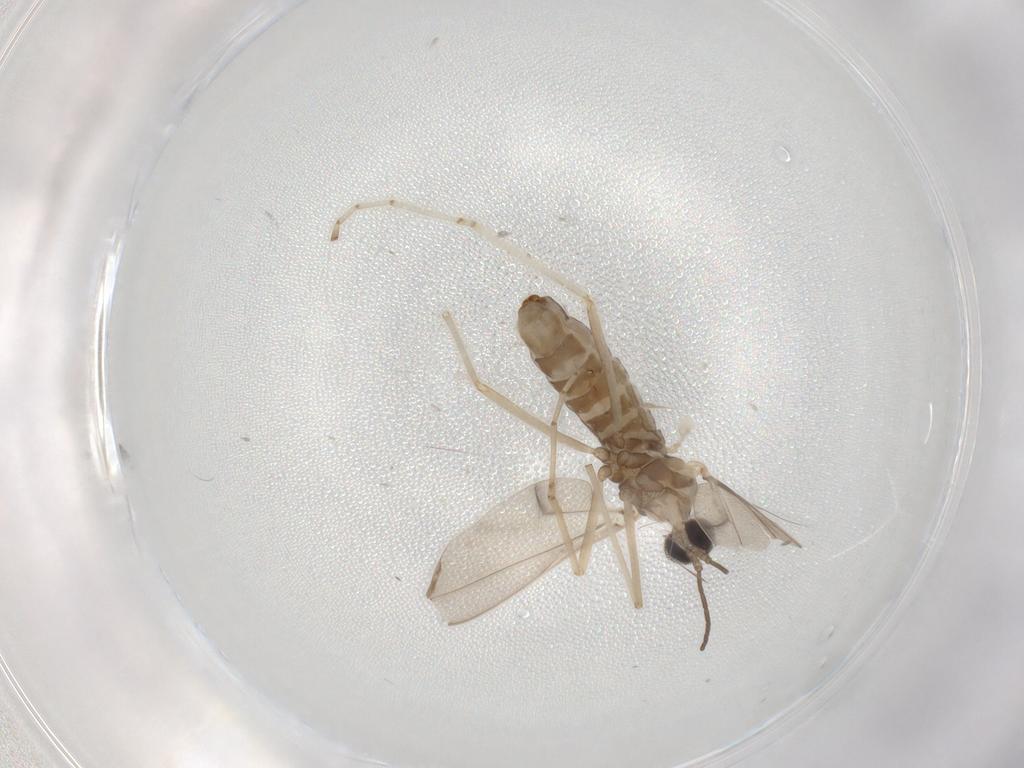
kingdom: Animalia
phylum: Arthropoda
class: Insecta
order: Diptera
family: Cecidomyiidae
